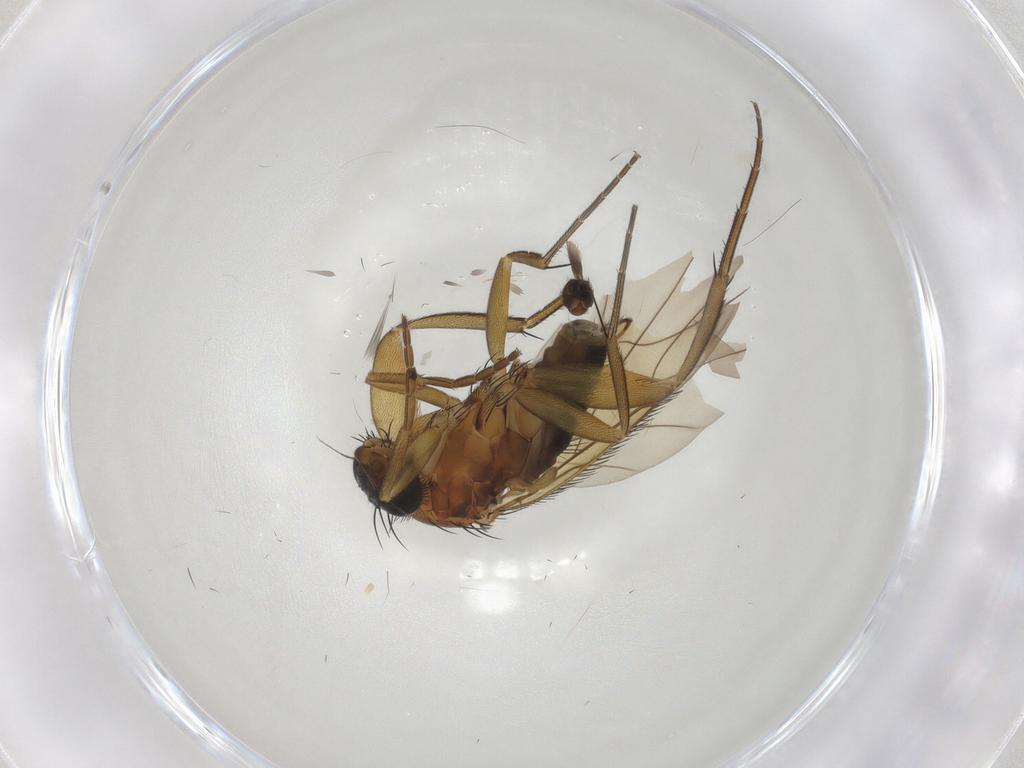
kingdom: Animalia
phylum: Arthropoda
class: Insecta
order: Diptera
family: Phoridae
